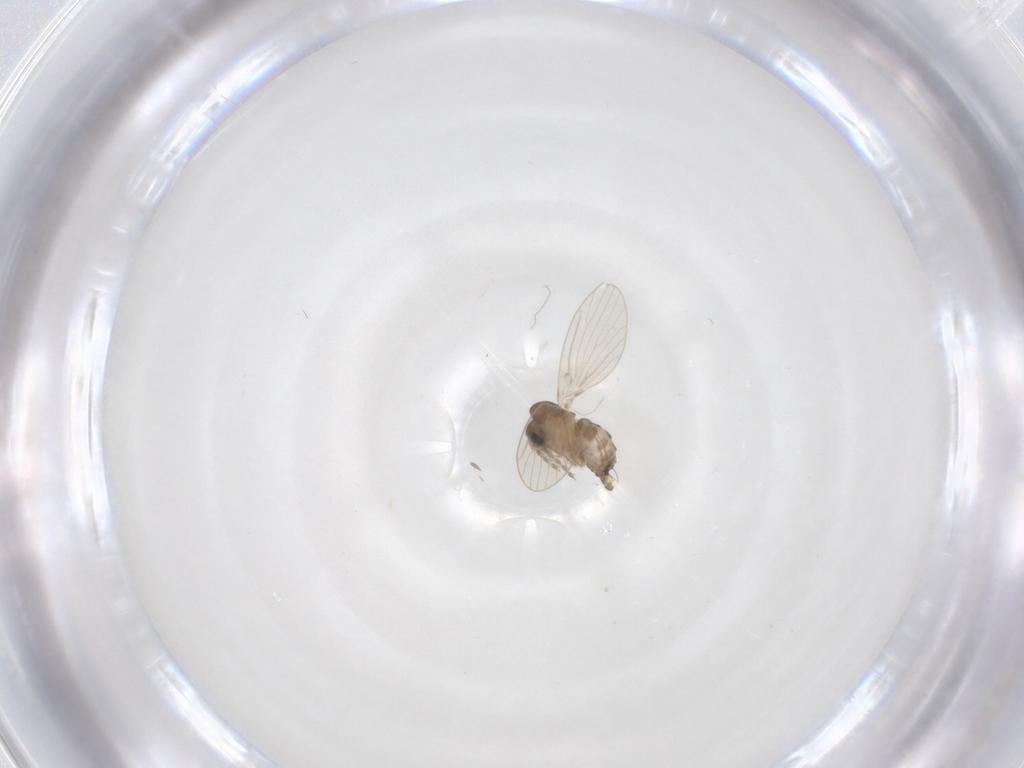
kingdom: Animalia
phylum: Arthropoda
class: Insecta
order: Diptera
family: Psychodidae
